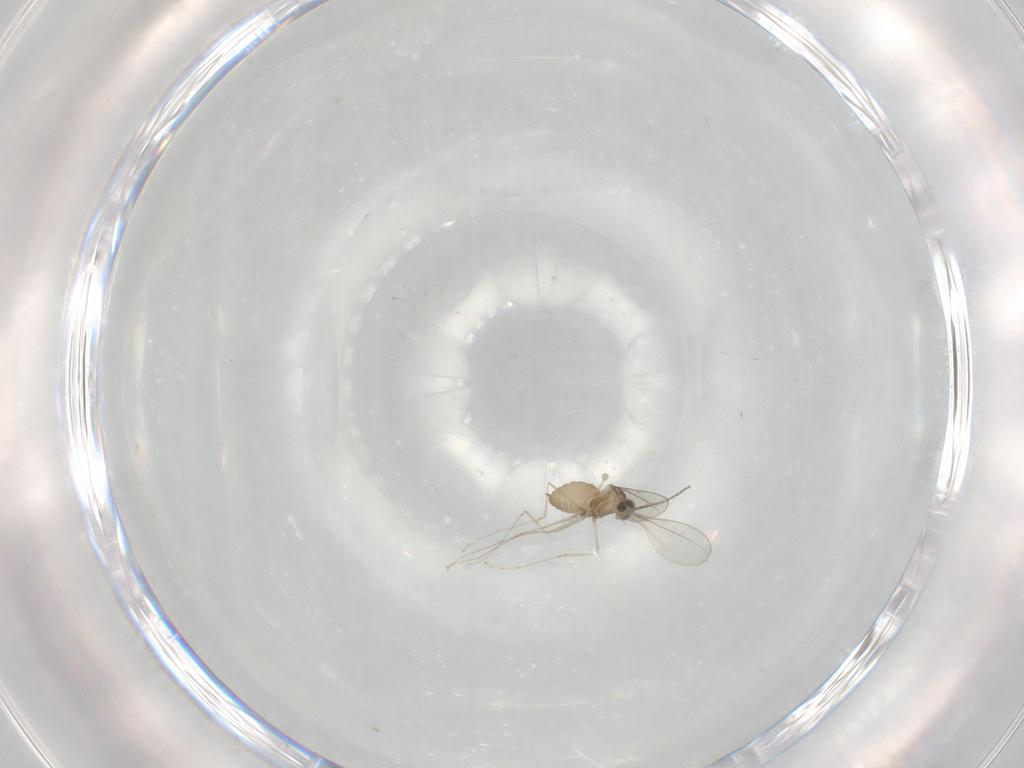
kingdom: Animalia
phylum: Arthropoda
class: Insecta
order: Diptera
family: Cecidomyiidae
